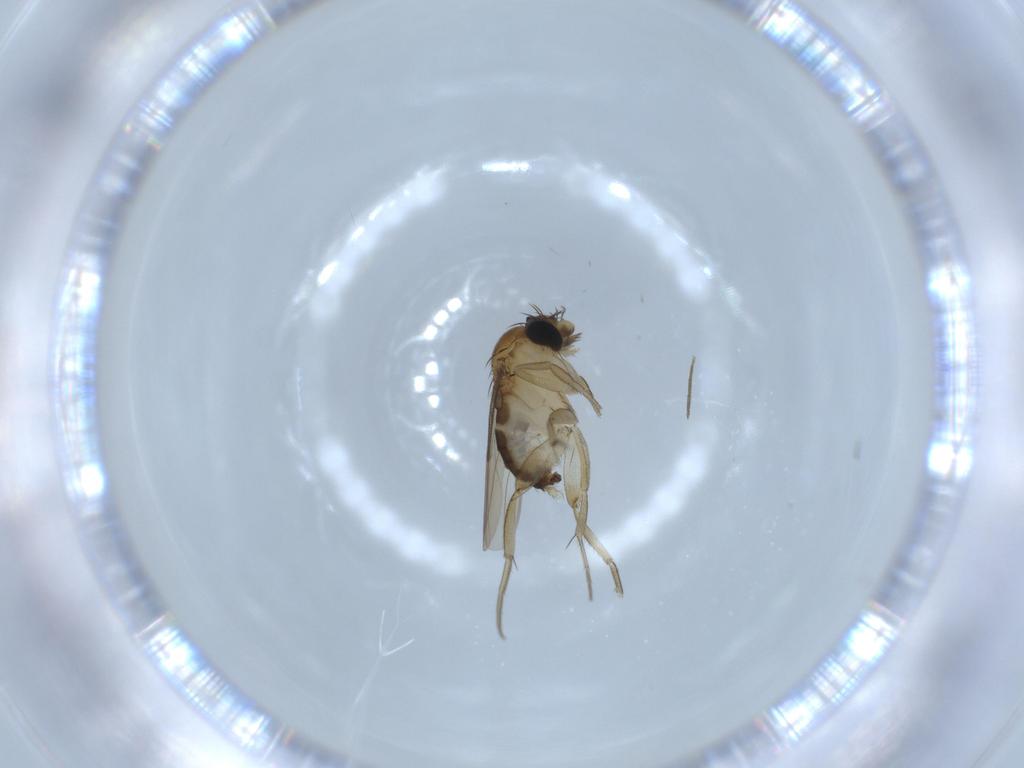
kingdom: Animalia
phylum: Arthropoda
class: Insecta
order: Diptera
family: Phoridae
